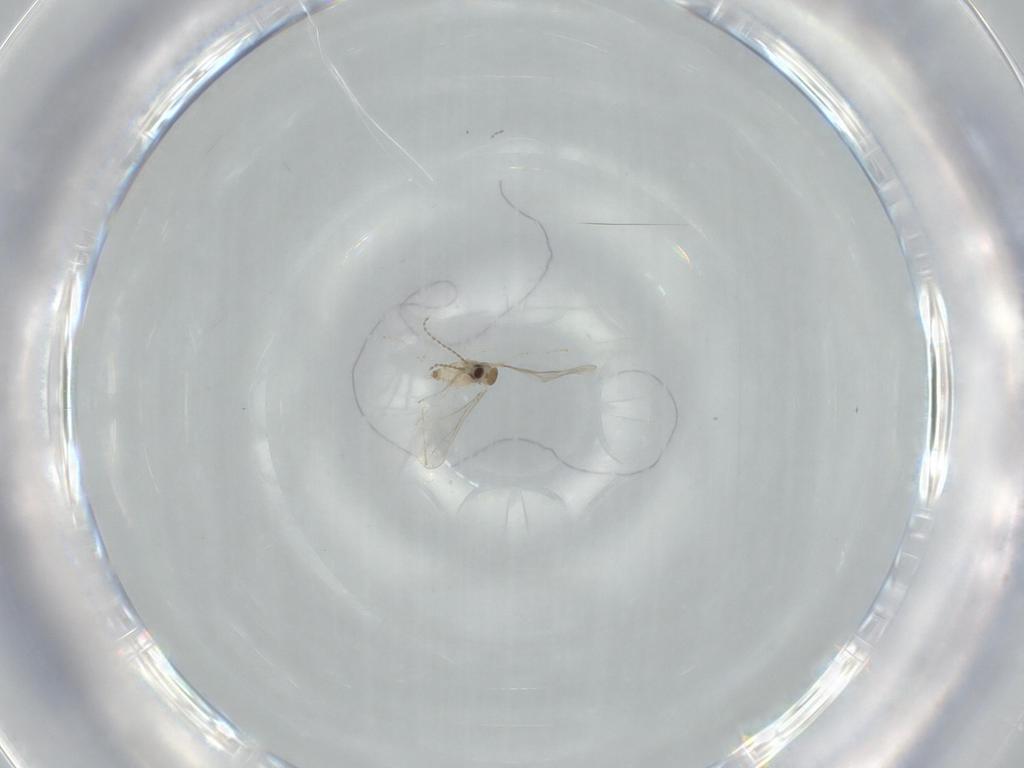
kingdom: Animalia
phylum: Arthropoda
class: Insecta
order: Diptera
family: Cecidomyiidae
